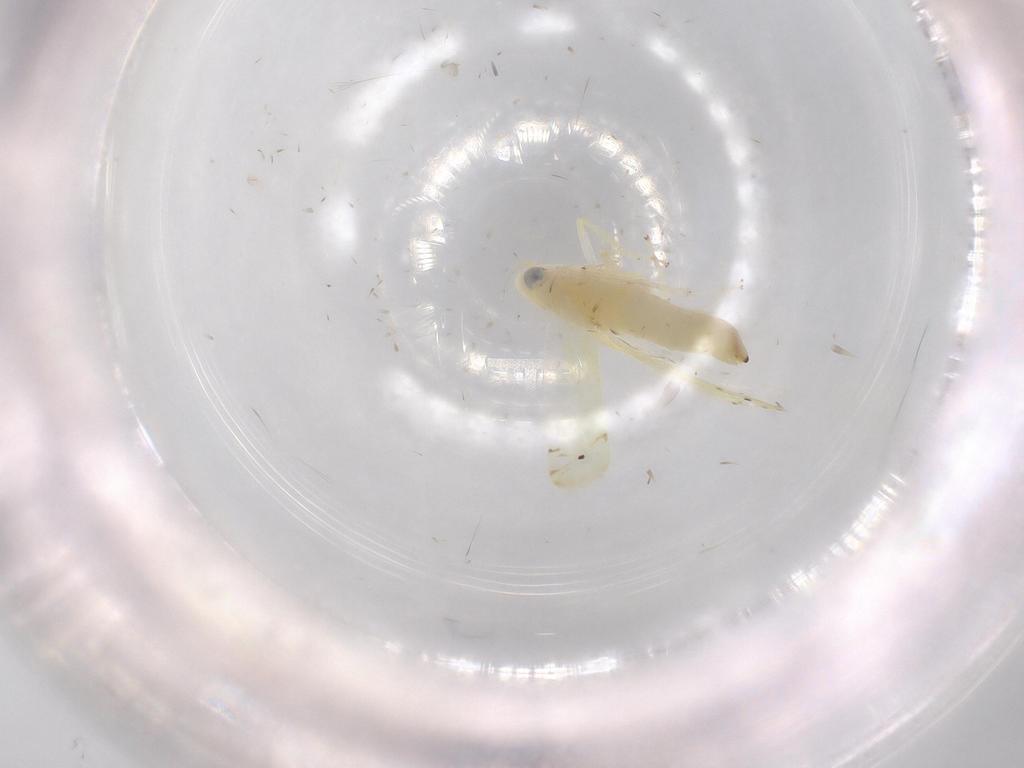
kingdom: Animalia
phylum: Arthropoda
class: Insecta
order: Hemiptera
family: Cicadellidae
